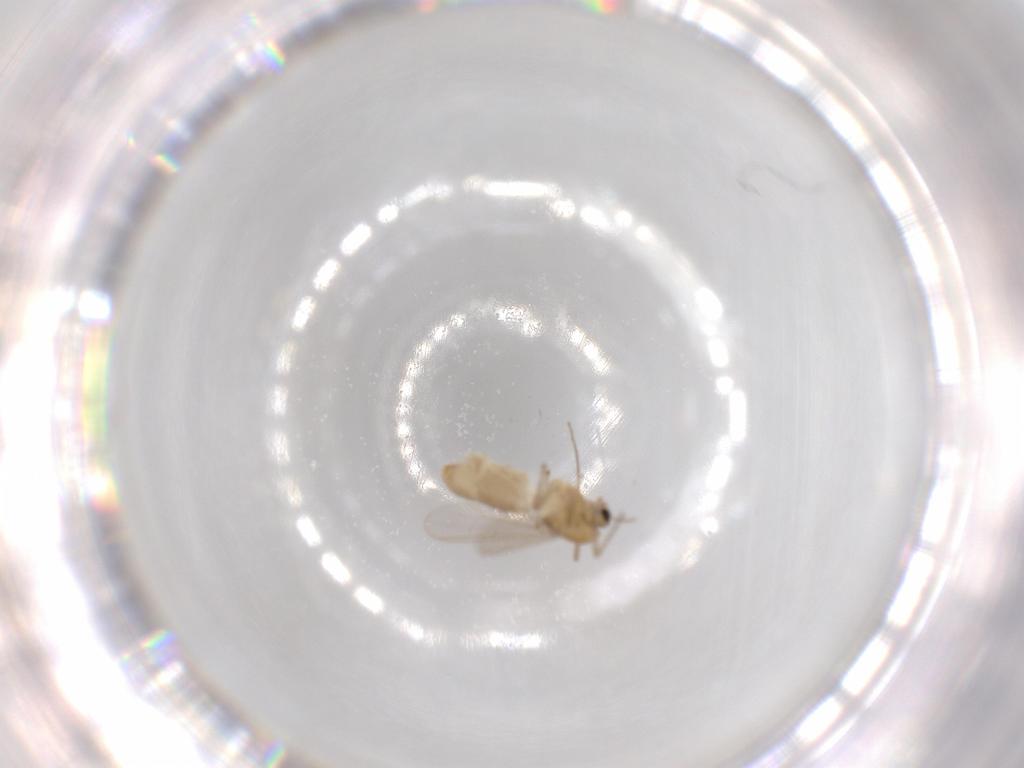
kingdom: Animalia
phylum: Arthropoda
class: Insecta
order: Diptera
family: Chironomidae
